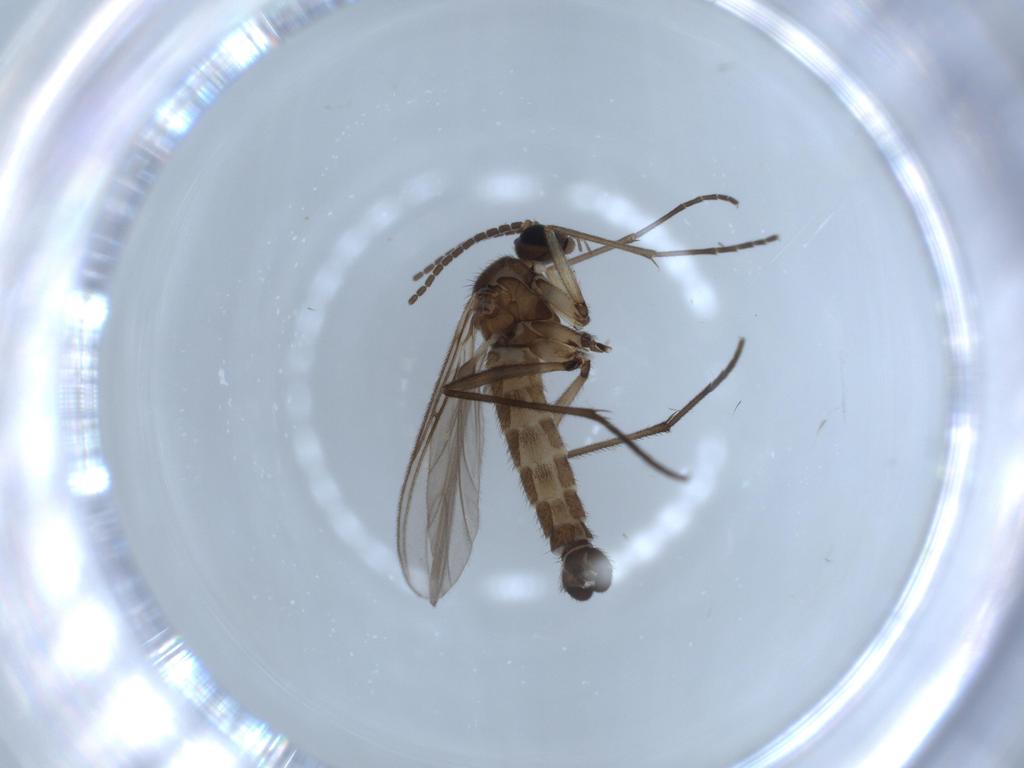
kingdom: Animalia
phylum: Arthropoda
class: Insecta
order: Diptera
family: Sciaridae
